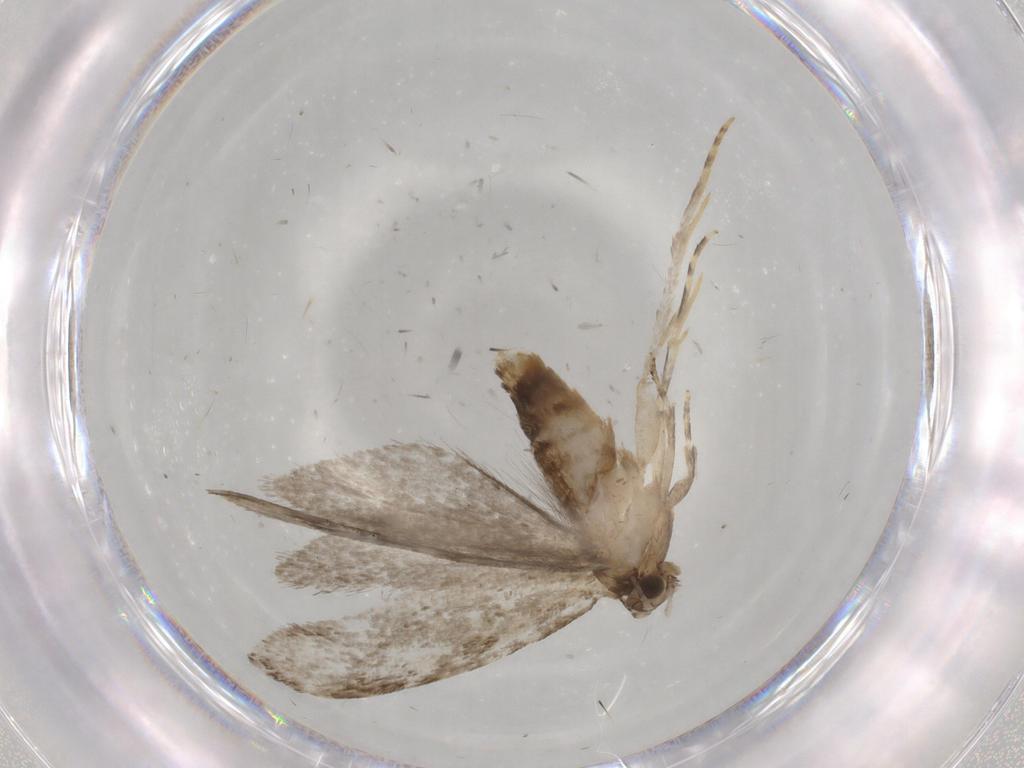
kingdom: Animalia
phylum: Arthropoda
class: Insecta
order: Lepidoptera
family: Tineidae
